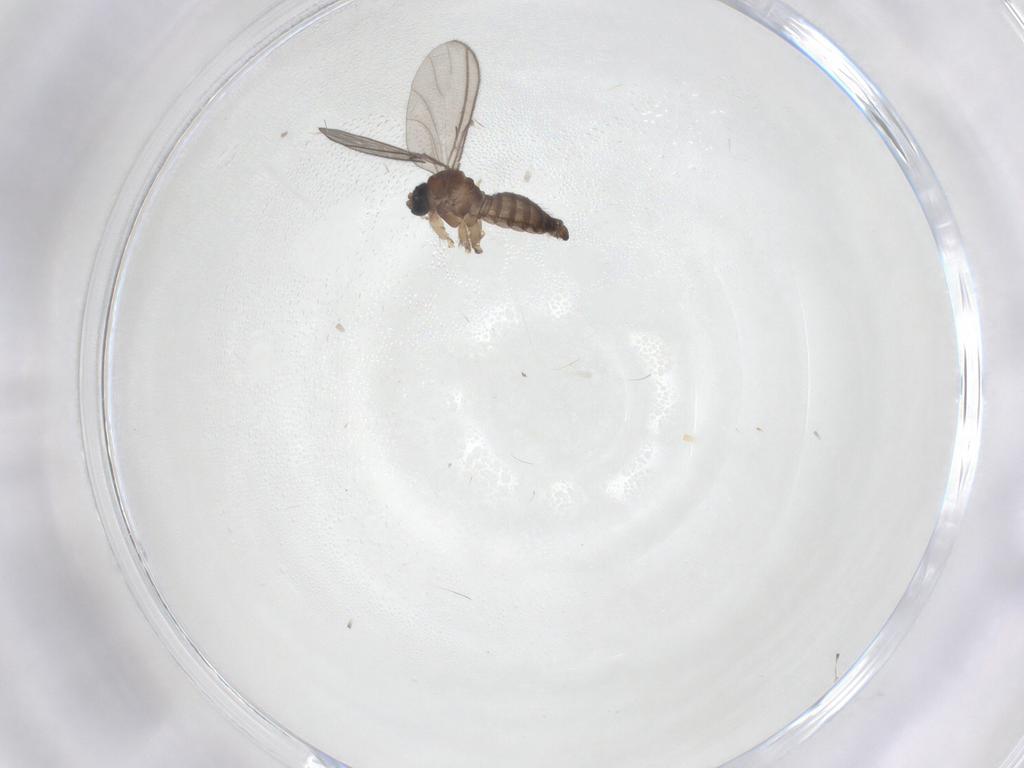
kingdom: Animalia
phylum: Arthropoda
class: Insecta
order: Diptera
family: Sciaridae
